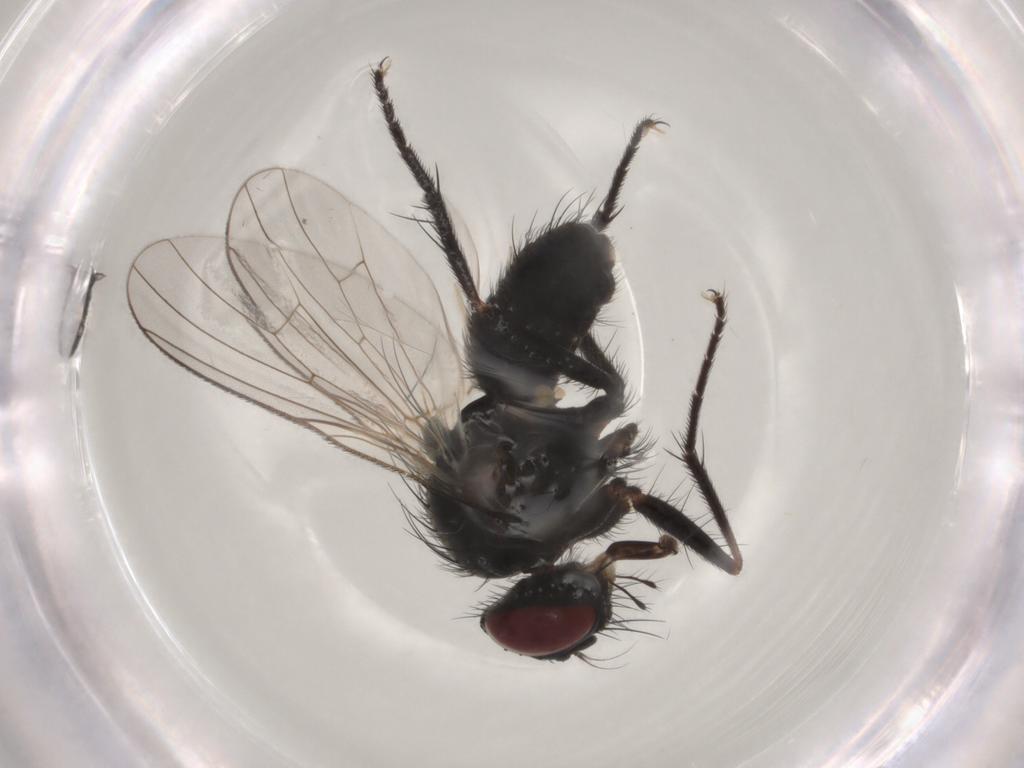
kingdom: Animalia
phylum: Arthropoda
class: Insecta
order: Diptera
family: Anthomyiidae
